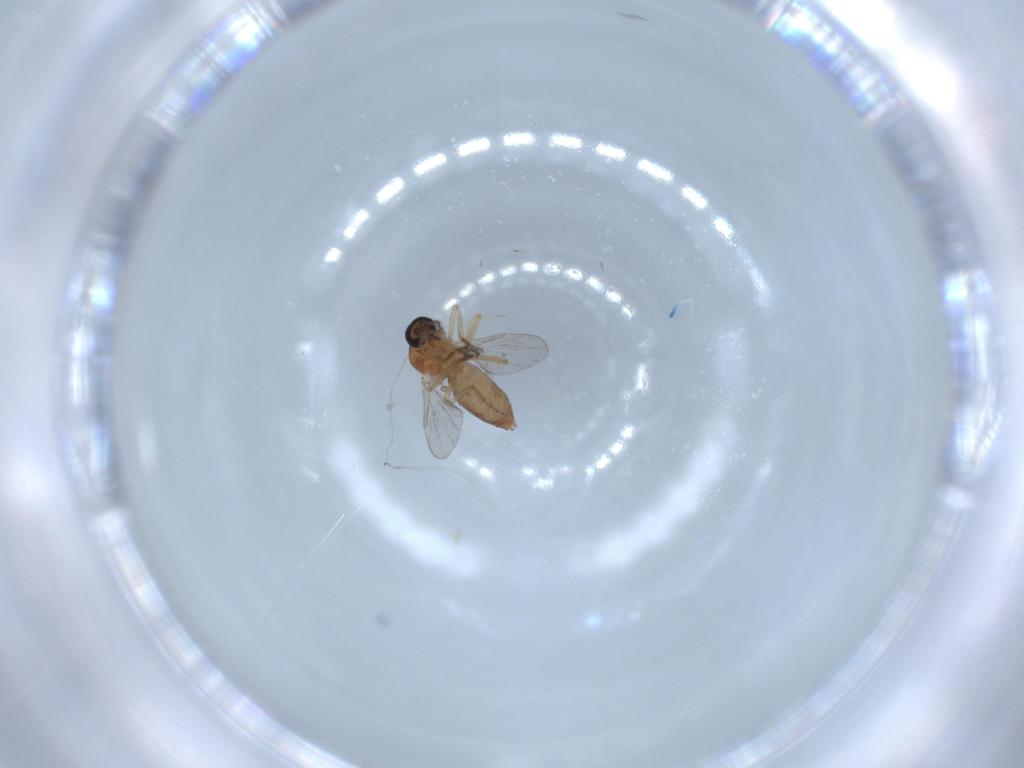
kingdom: Animalia
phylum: Arthropoda
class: Insecta
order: Diptera
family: Ceratopogonidae
